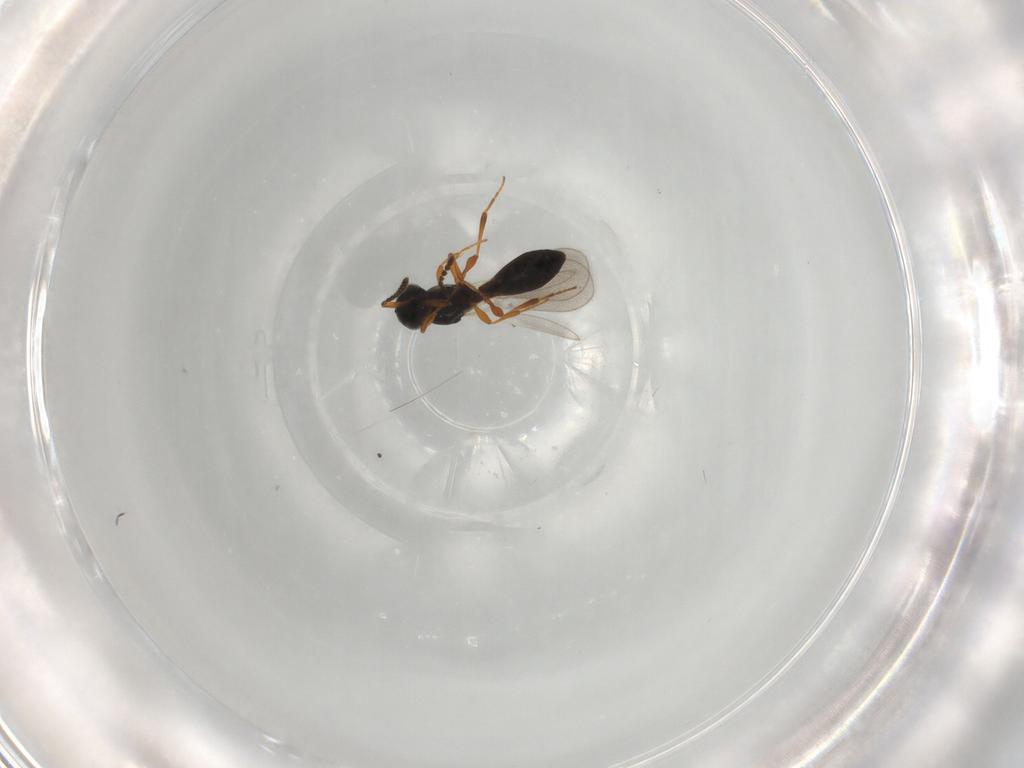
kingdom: Animalia
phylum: Arthropoda
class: Insecta
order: Hymenoptera
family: Platygastridae
